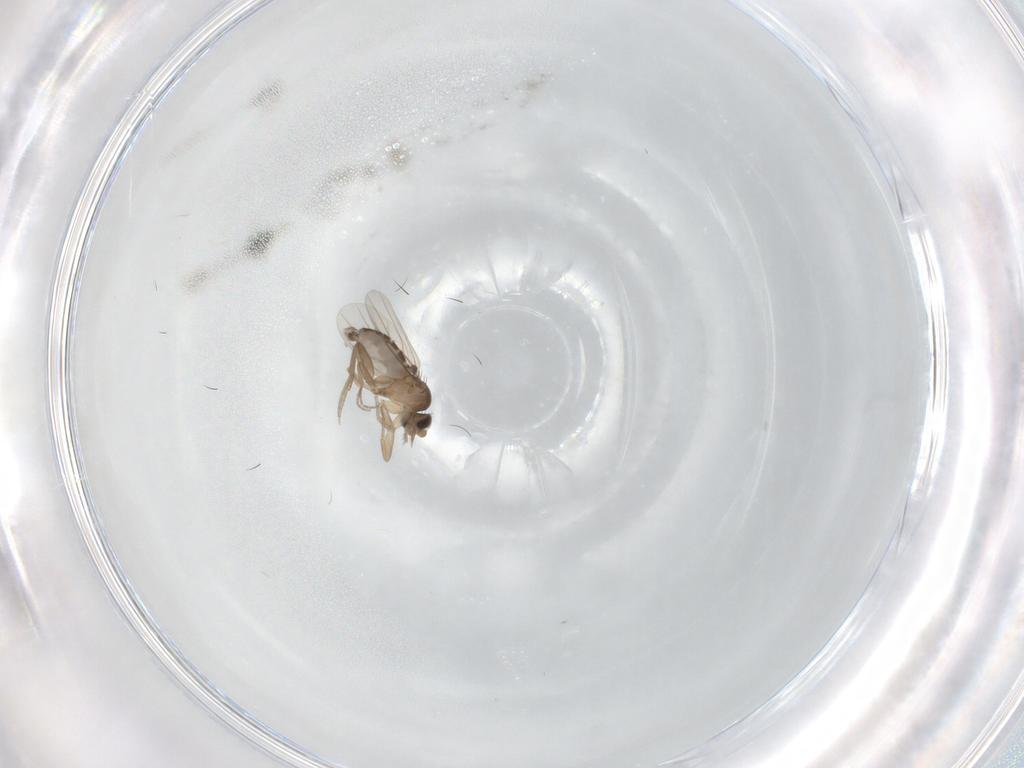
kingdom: Animalia
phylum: Arthropoda
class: Insecta
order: Diptera
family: Phoridae
